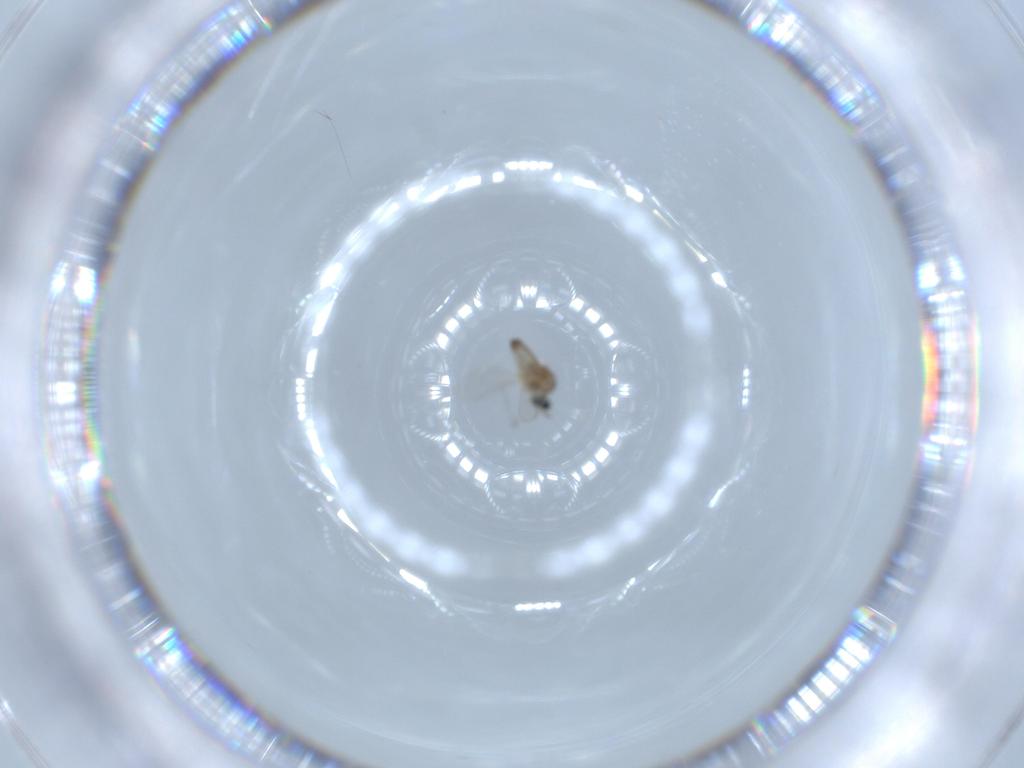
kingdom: Animalia
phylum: Arthropoda
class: Insecta
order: Diptera
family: Cecidomyiidae
